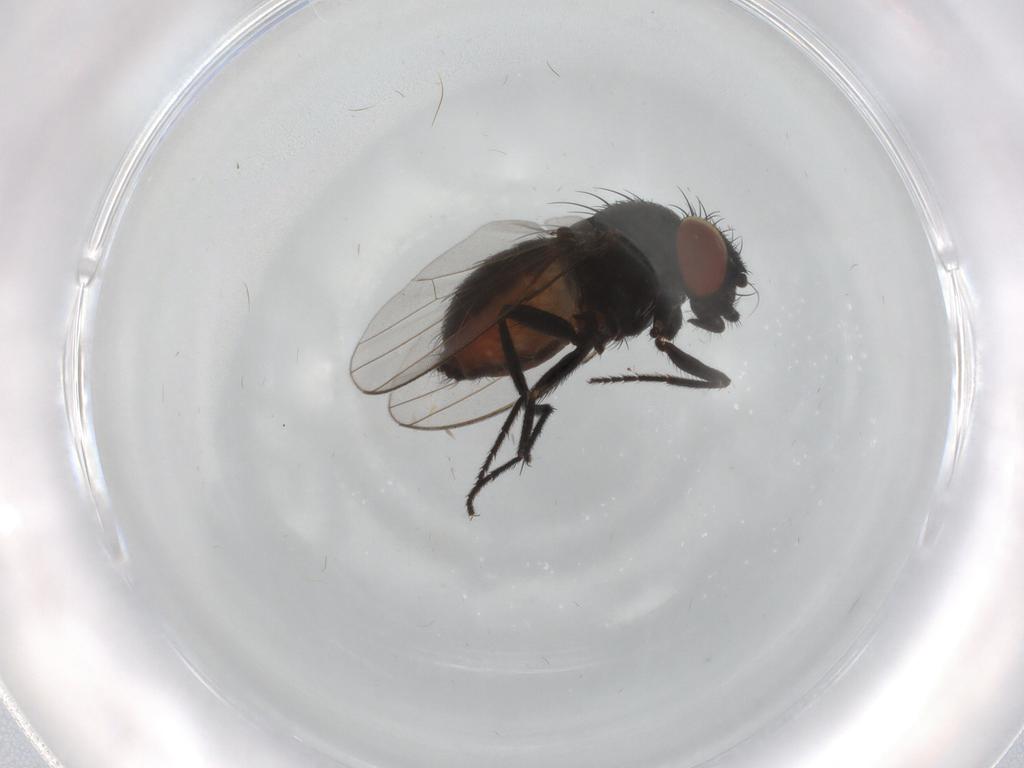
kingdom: Animalia
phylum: Arthropoda
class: Insecta
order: Diptera
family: Milichiidae
